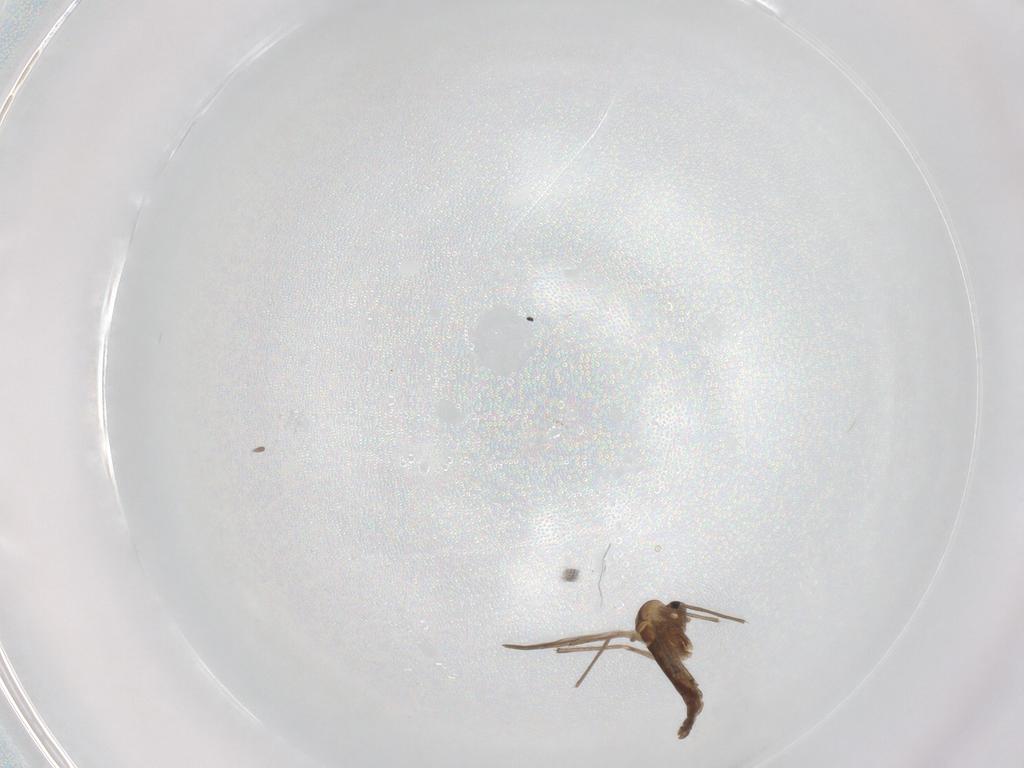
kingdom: Animalia
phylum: Arthropoda
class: Insecta
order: Diptera
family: Chironomidae
